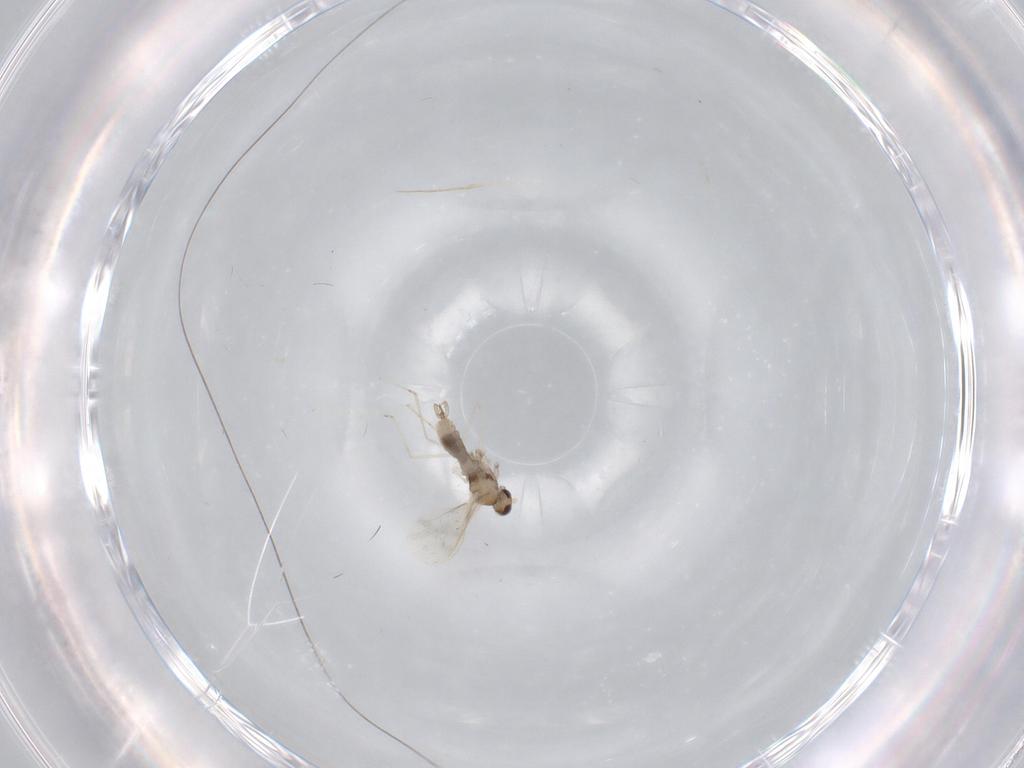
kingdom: Animalia
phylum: Arthropoda
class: Insecta
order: Diptera
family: Cecidomyiidae
